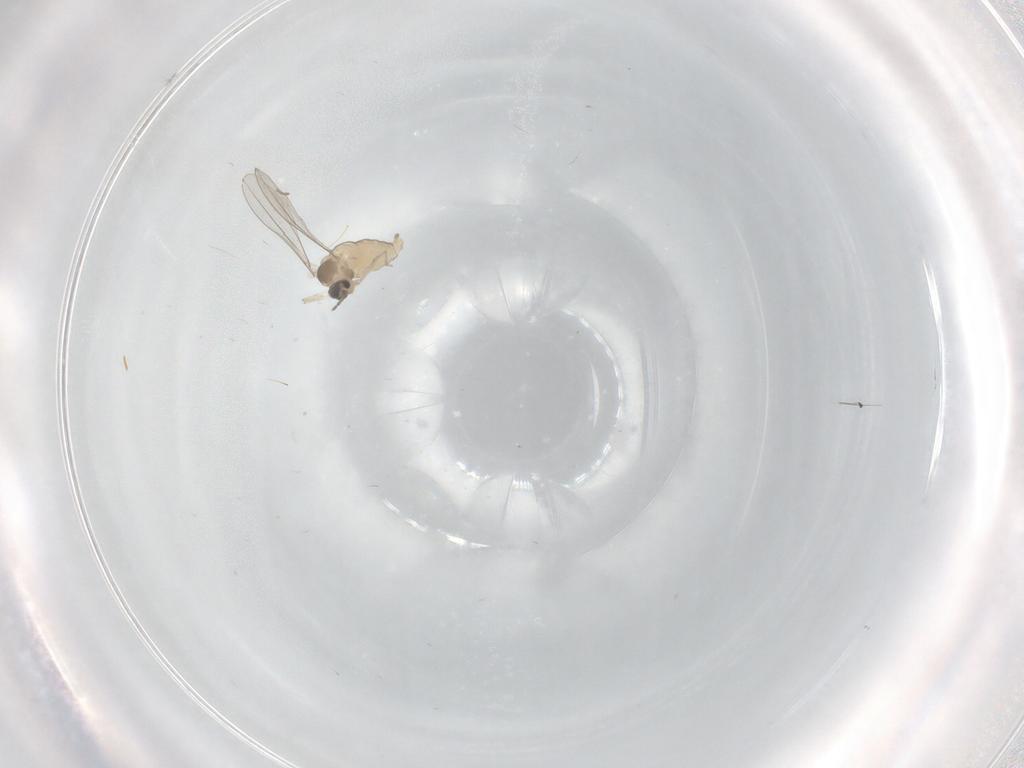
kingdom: Animalia
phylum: Arthropoda
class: Insecta
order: Diptera
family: Cecidomyiidae
